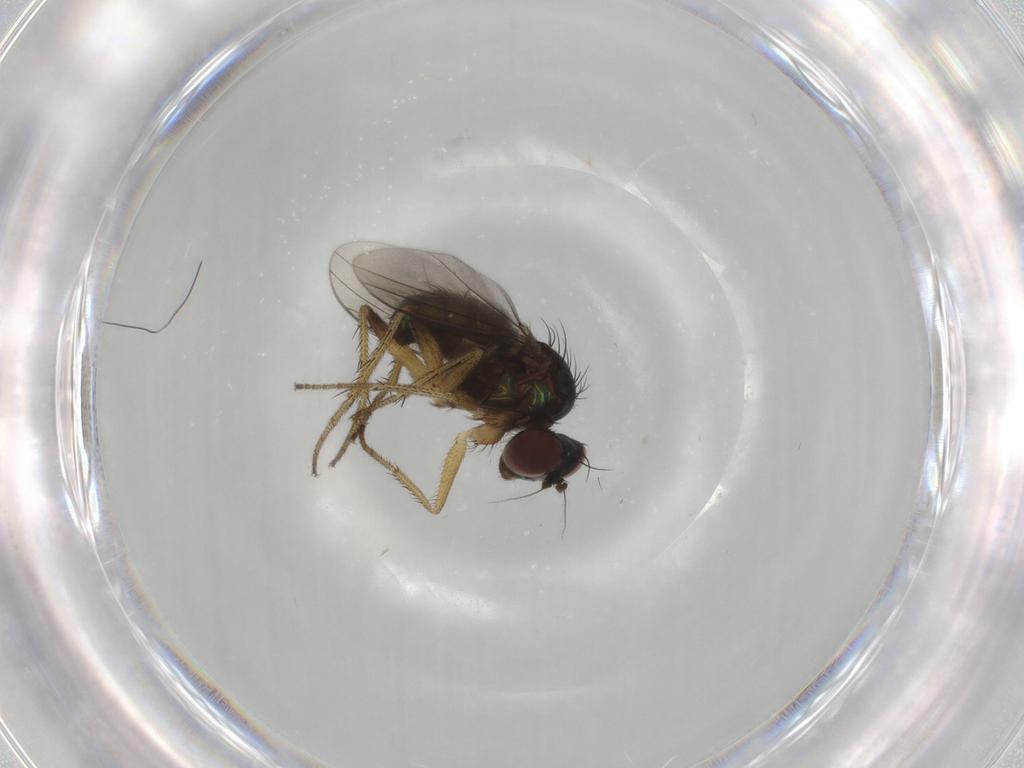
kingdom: Animalia
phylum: Arthropoda
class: Insecta
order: Diptera
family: Dolichopodidae
